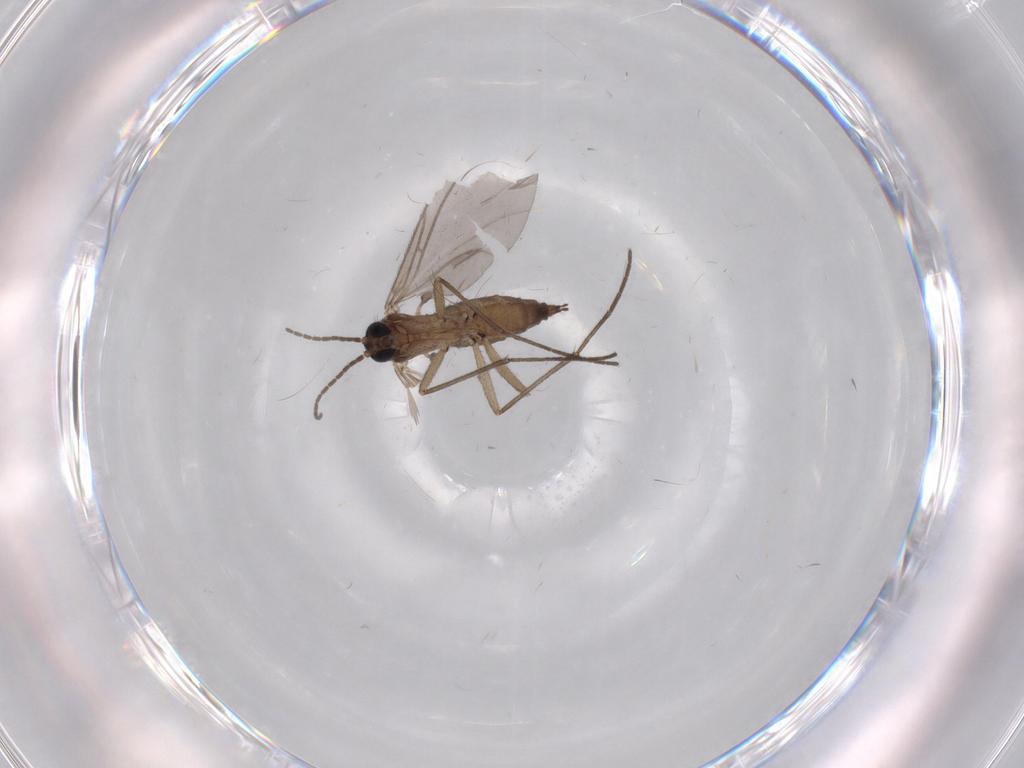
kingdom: Animalia
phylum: Arthropoda
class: Insecta
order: Diptera
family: Sciaridae
